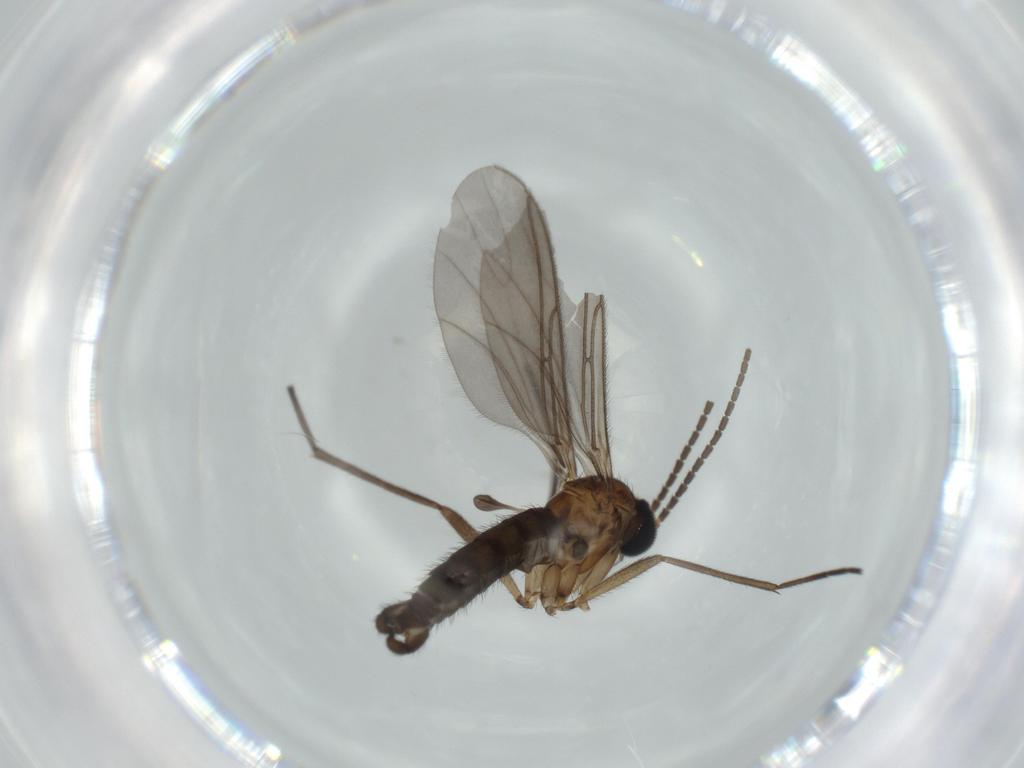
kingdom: Animalia
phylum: Arthropoda
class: Insecta
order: Diptera
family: Sciaridae
